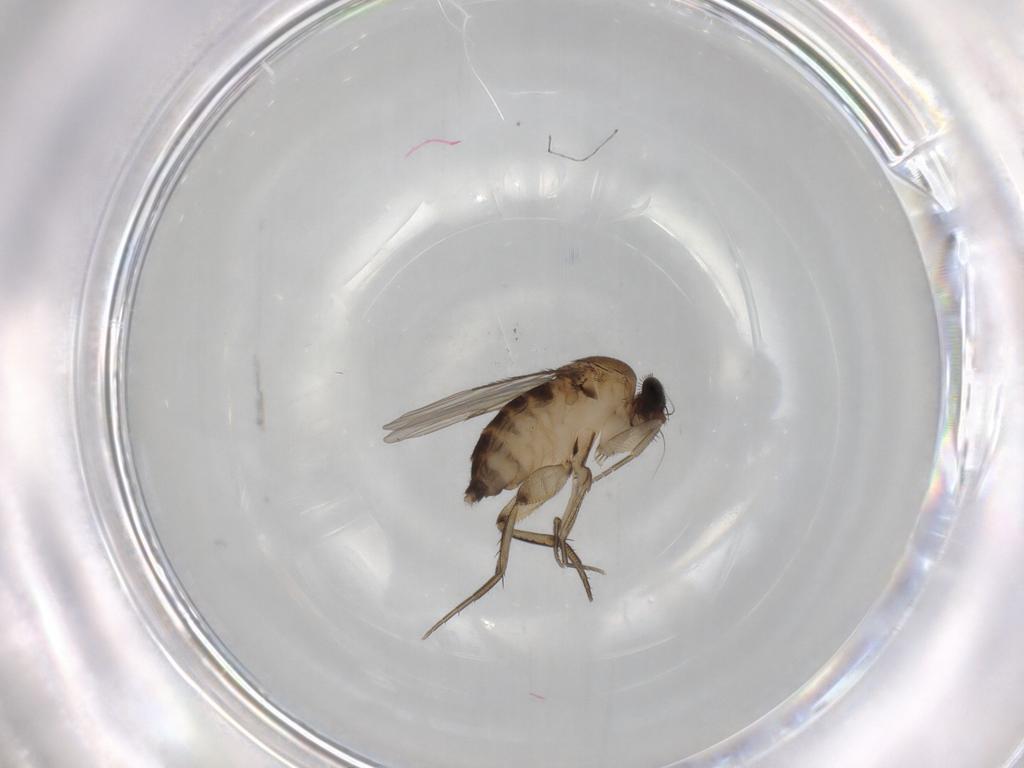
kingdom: Animalia
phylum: Arthropoda
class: Insecta
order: Diptera
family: Phoridae
